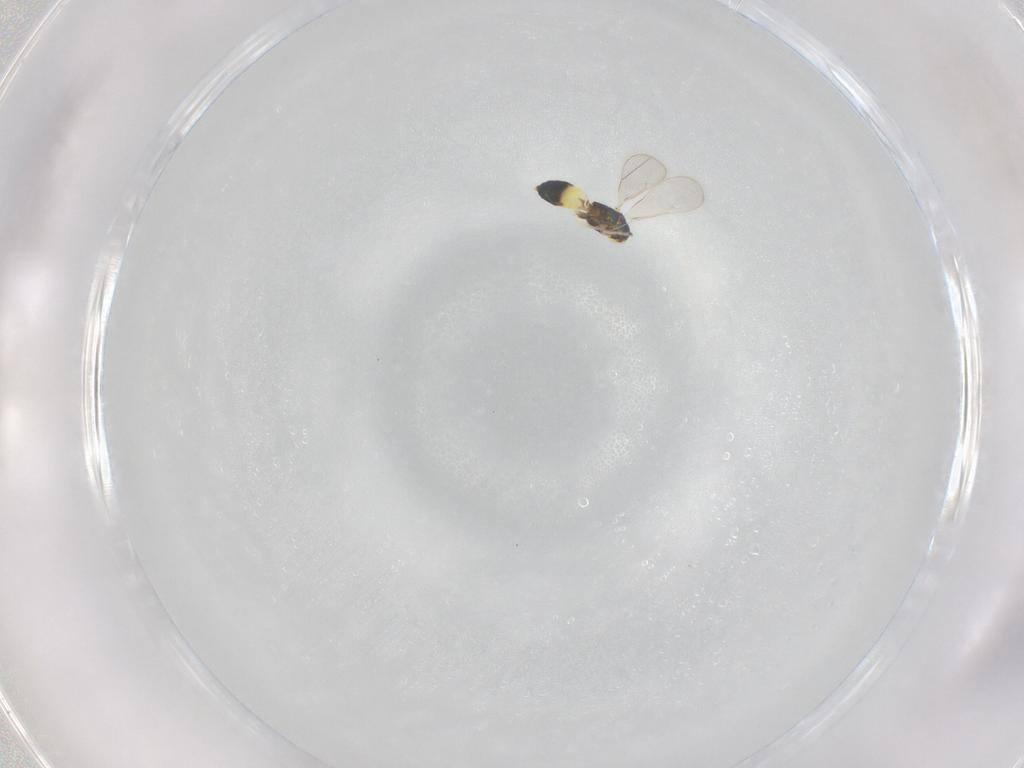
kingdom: Animalia
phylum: Arthropoda
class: Insecta
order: Hymenoptera
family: Eulophidae
